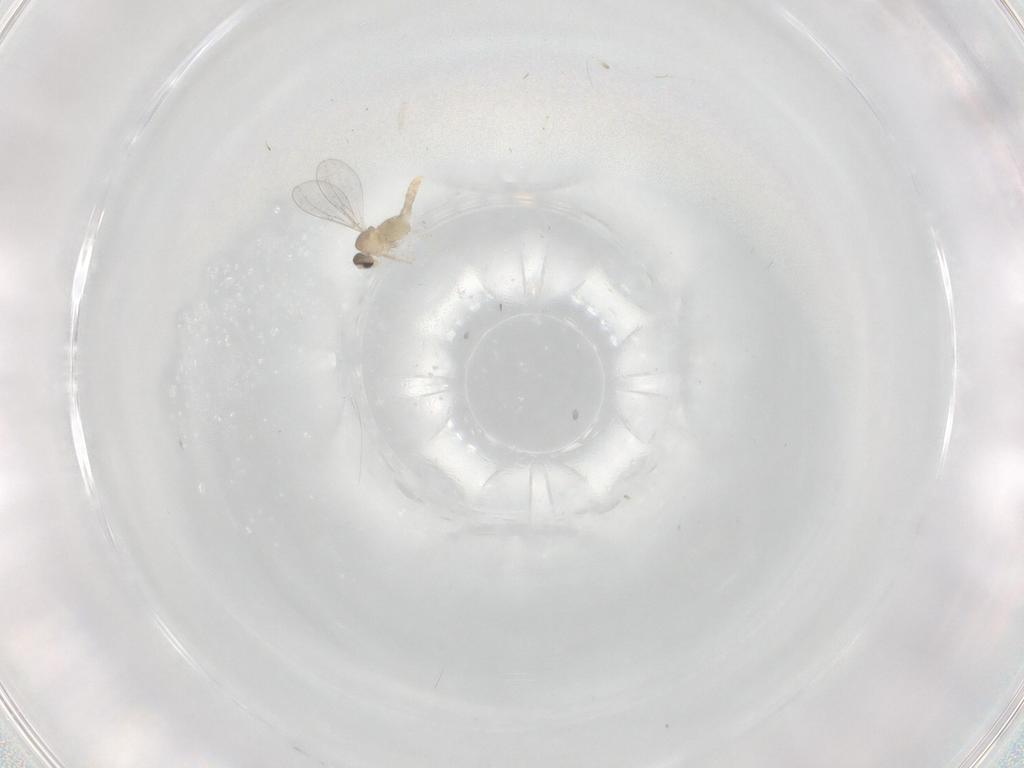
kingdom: Animalia
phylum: Arthropoda
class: Insecta
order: Diptera
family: Cecidomyiidae
